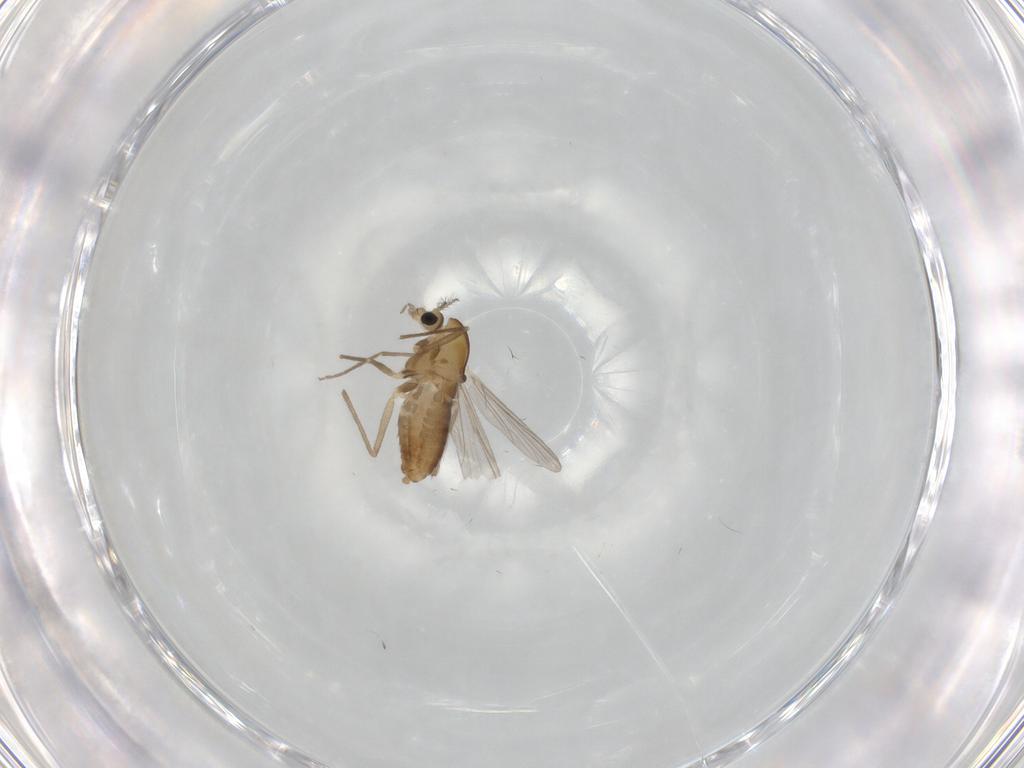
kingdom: Animalia
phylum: Arthropoda
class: Insecta
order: Diptera
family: Chironomidae
